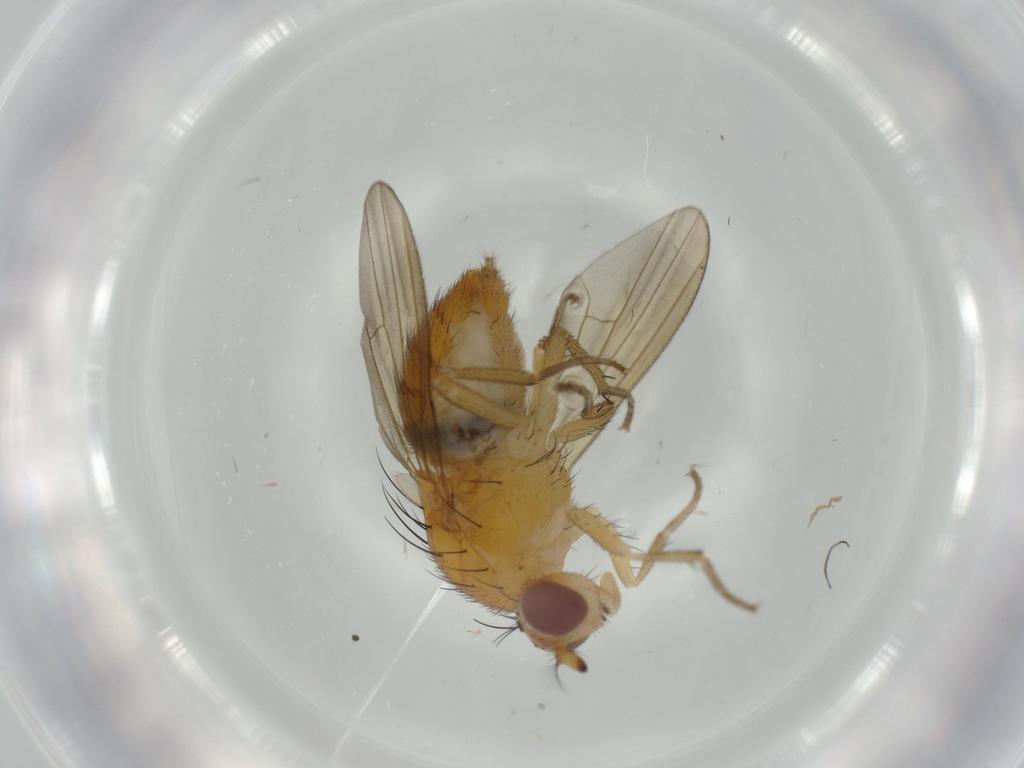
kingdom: Animalia
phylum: Arthropoda
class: Insecta
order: Diptera
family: Lauxaniidae
